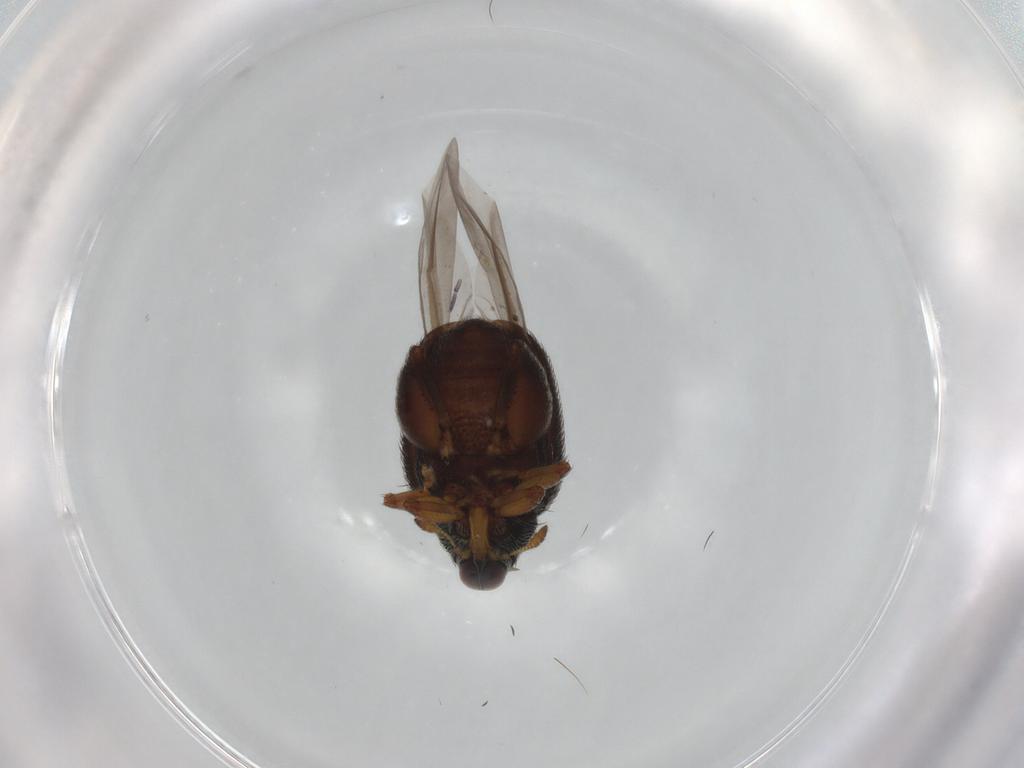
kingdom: Animalia
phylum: Arthropoda
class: Insecta
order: Coleoptera
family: Curculionidae
